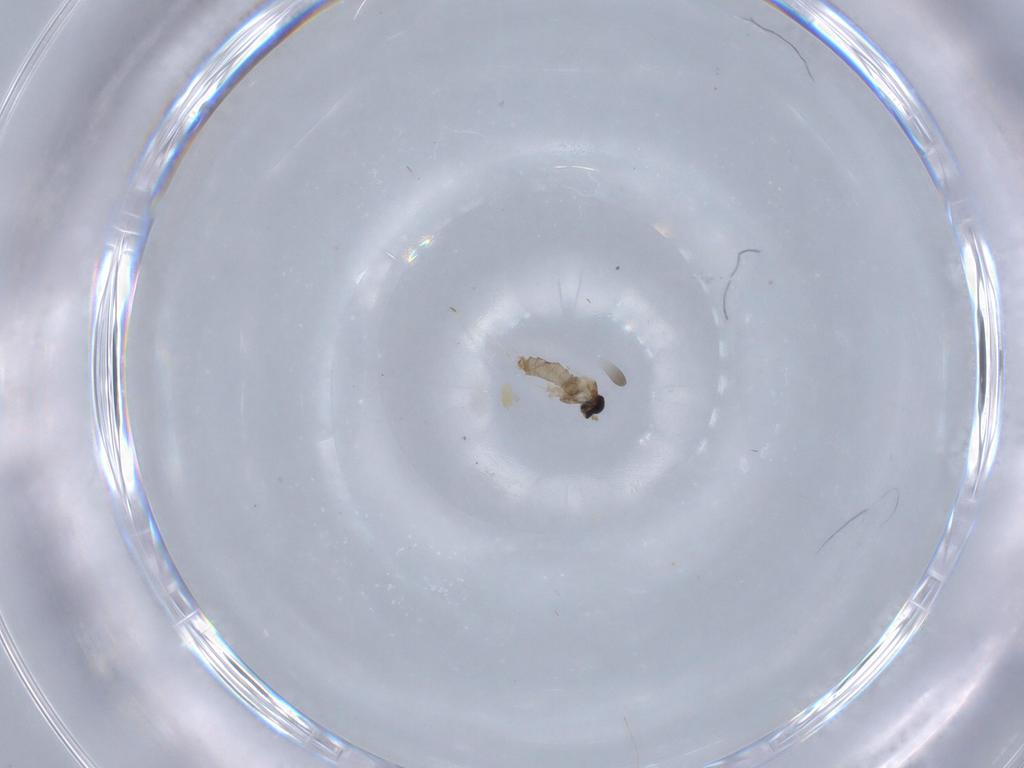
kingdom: Animalia
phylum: Arthropoda
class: Insecta
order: Diptera
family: Cecidomyiidae
